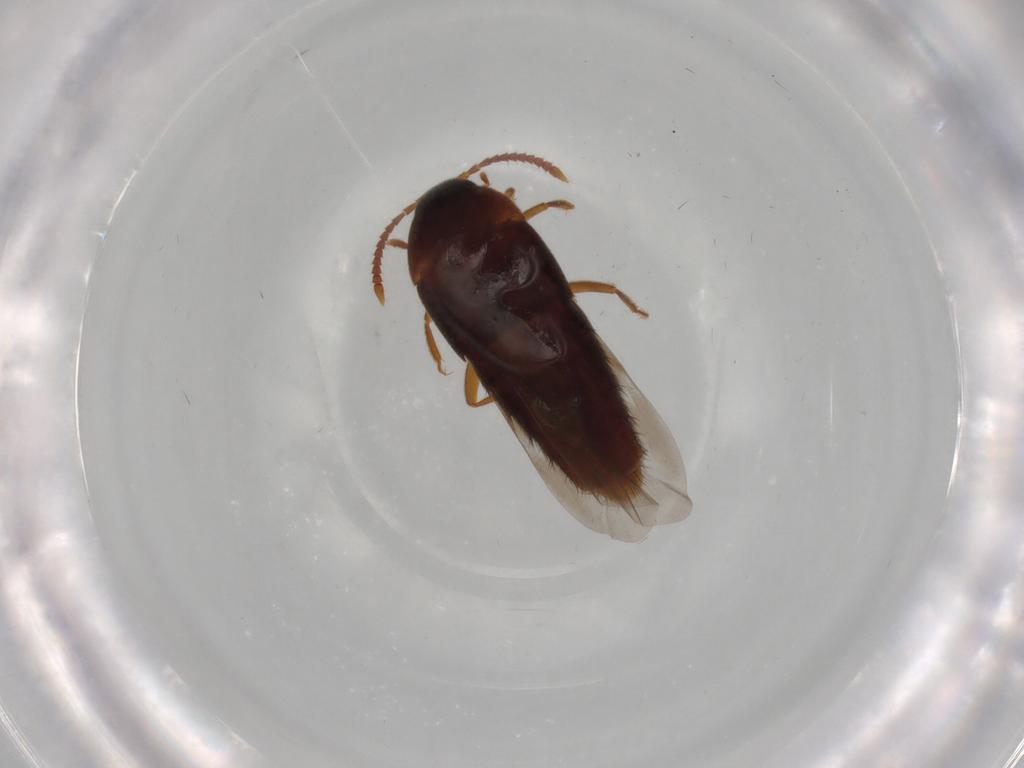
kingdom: Animalia
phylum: Arthropoda
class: Insecta
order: Coleoptera
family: Staphylinidae
